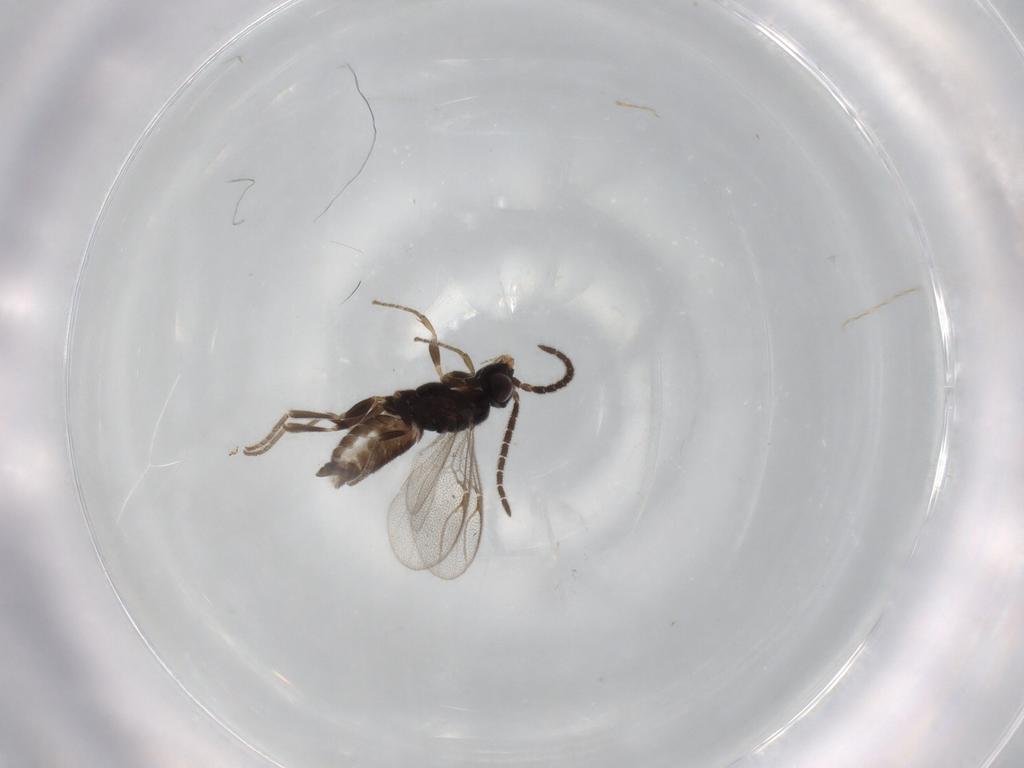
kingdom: Animalia
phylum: Arthropoda
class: Insecta
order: Hymenoptera
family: Dryinidae
